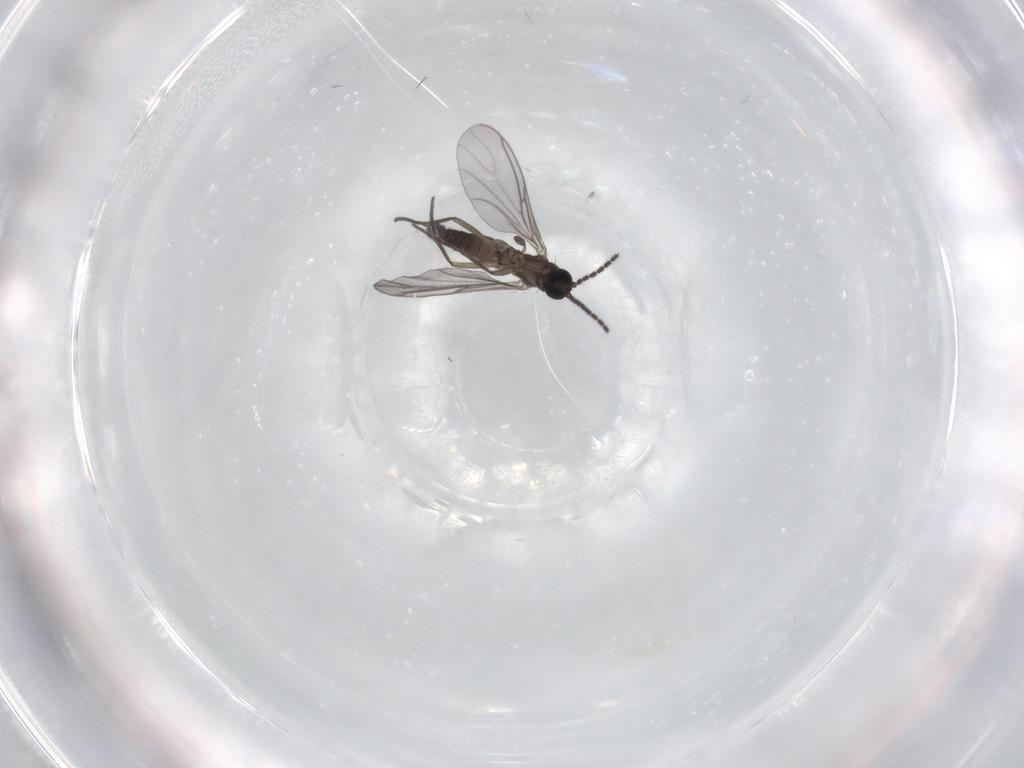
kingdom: Animalia
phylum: Arthropoda
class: Insecta
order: Diptera
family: Sciaridae
